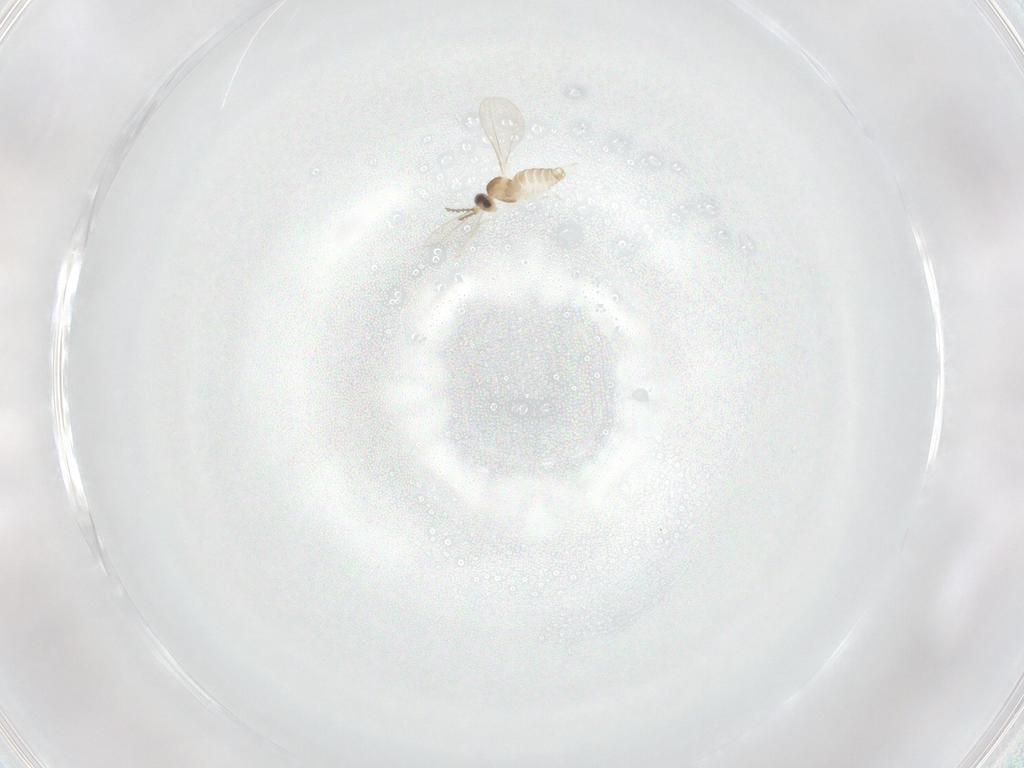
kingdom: Animalia
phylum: Arthropoda
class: Insecta
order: Diptera
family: Cecidomyiidae
